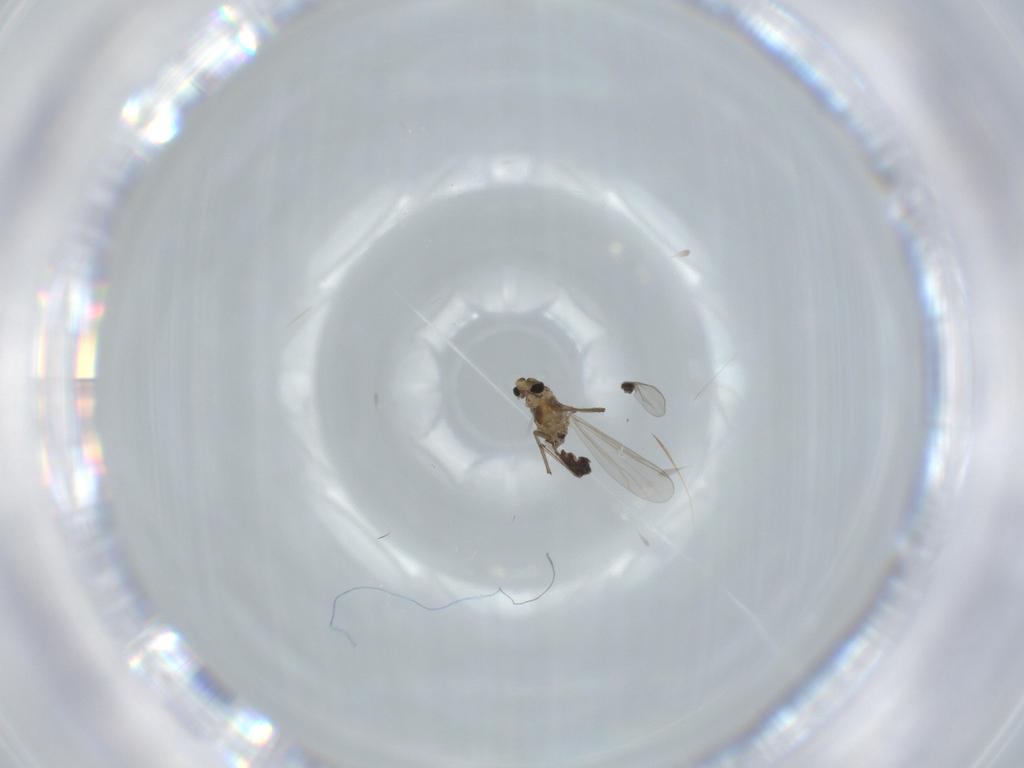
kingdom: Animalia
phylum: Arthropoda
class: Insecta
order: Diptera
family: Chironomidae
